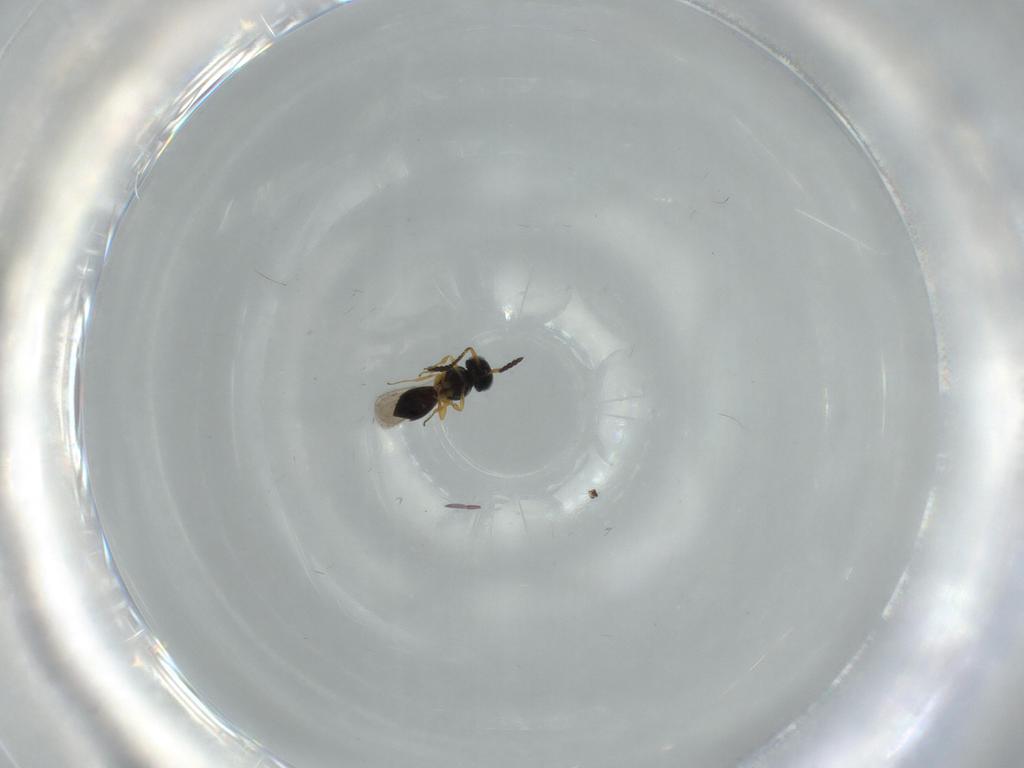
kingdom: Animalia
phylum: Arthropoda
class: Insecta
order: Hymenoptera
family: Scelionidae
